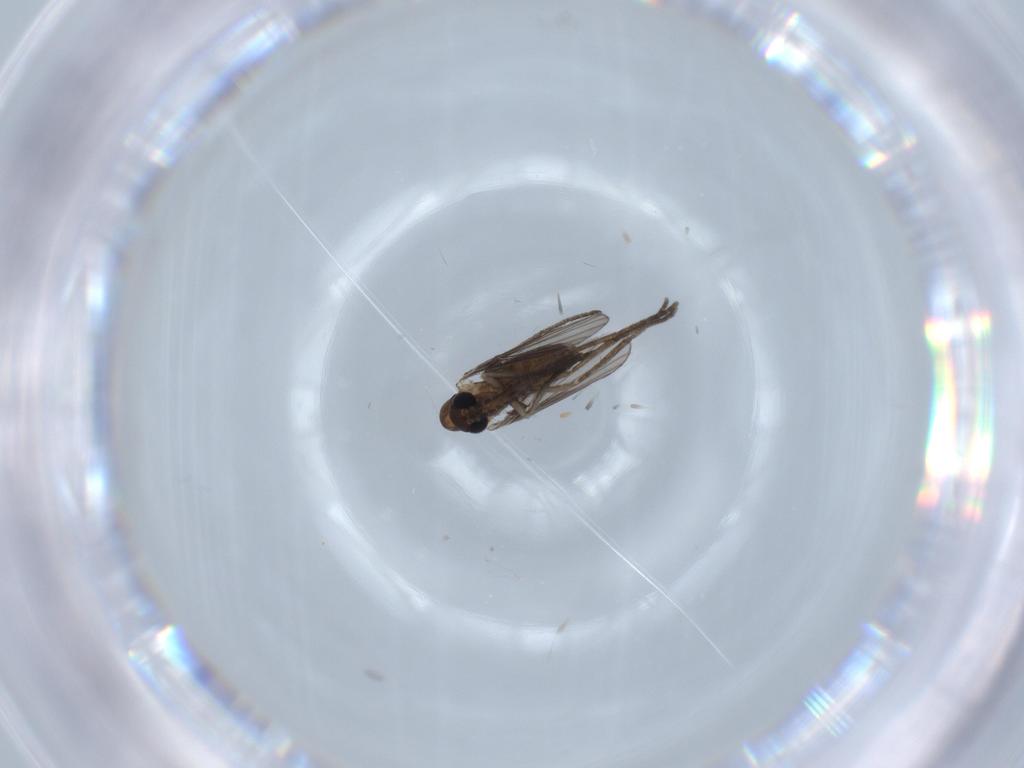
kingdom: Animalia
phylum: Arthropoda
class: Insecta
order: Diptera
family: Psychodidae
